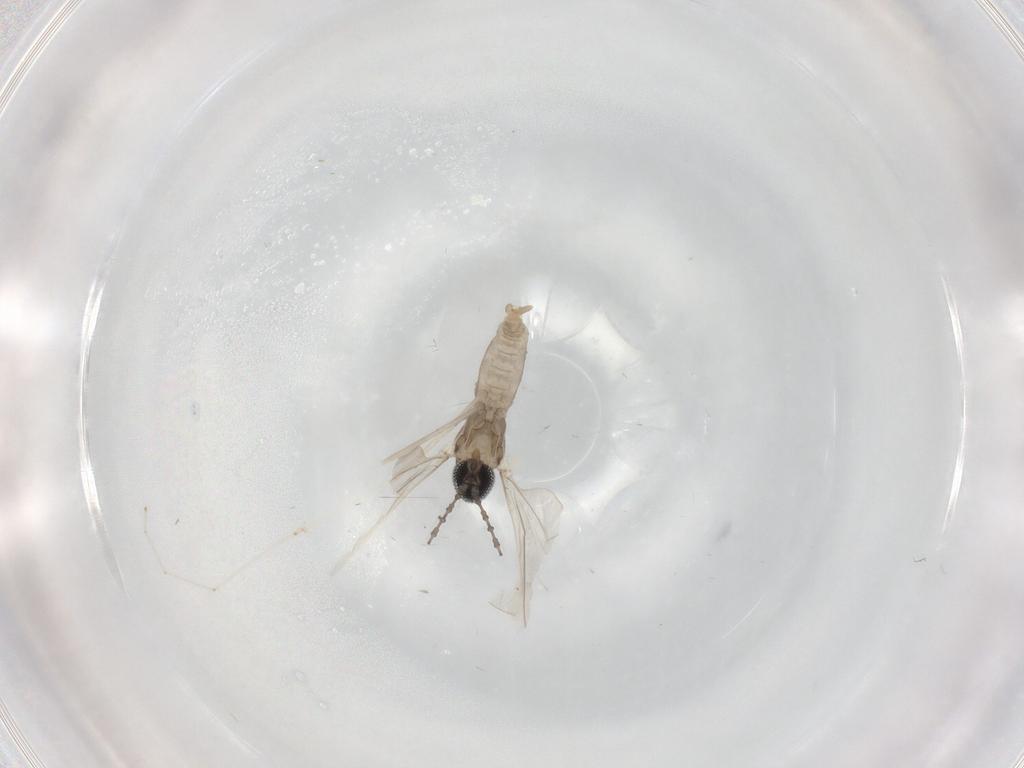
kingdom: Animalia
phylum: Arthropoda
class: Insecta
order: Diptera
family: Cecidomyiidae
